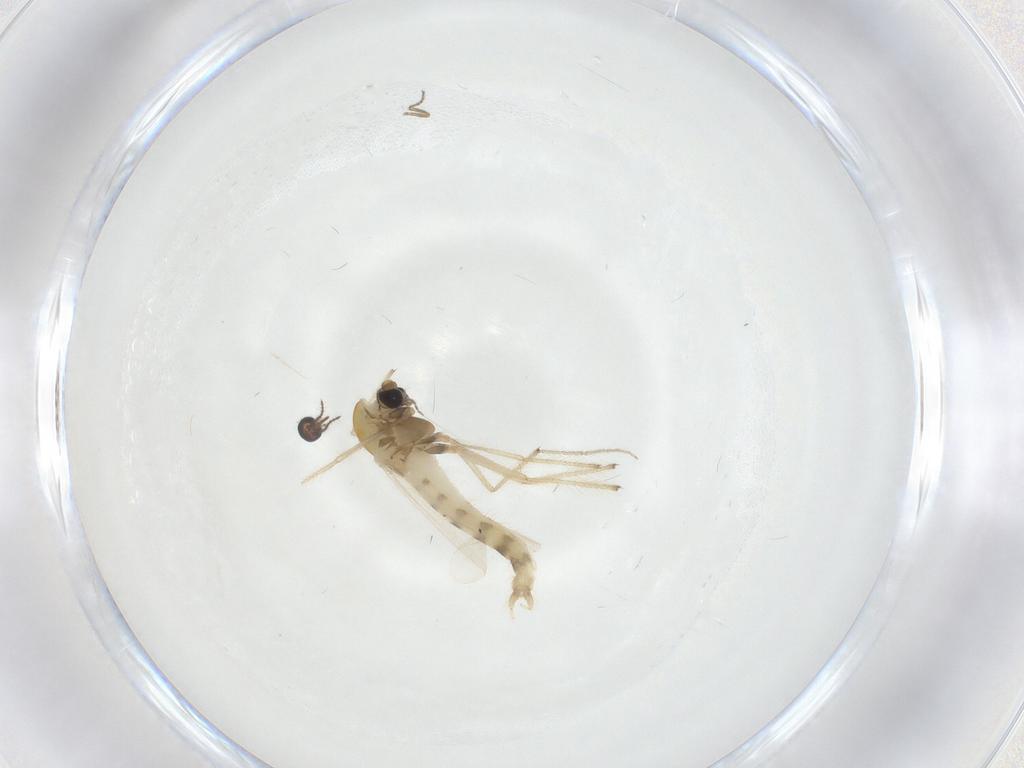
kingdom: Animalia
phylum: Arthropoda
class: Insecta
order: Diptera
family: Chironomidae
